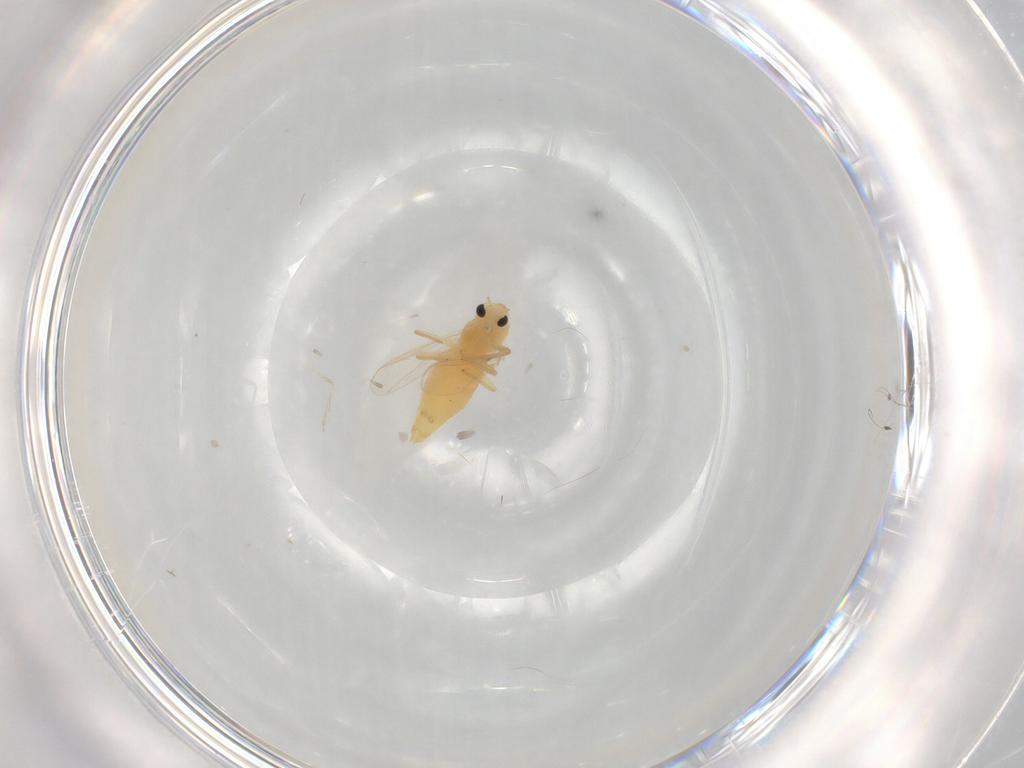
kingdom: Animalia
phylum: Arthropoda
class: Insecta
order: Diptera
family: Chironomidae
